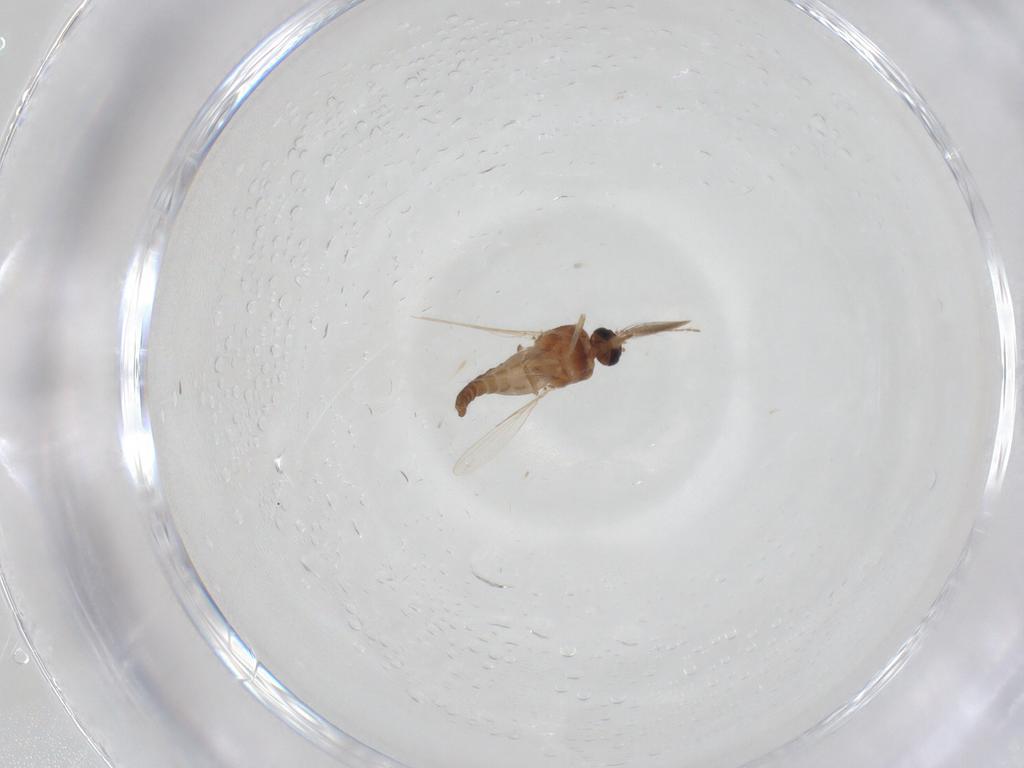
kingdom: Animalia
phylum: Arthropoda
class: Insecta
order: Diptera
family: Ceratopogonidae
